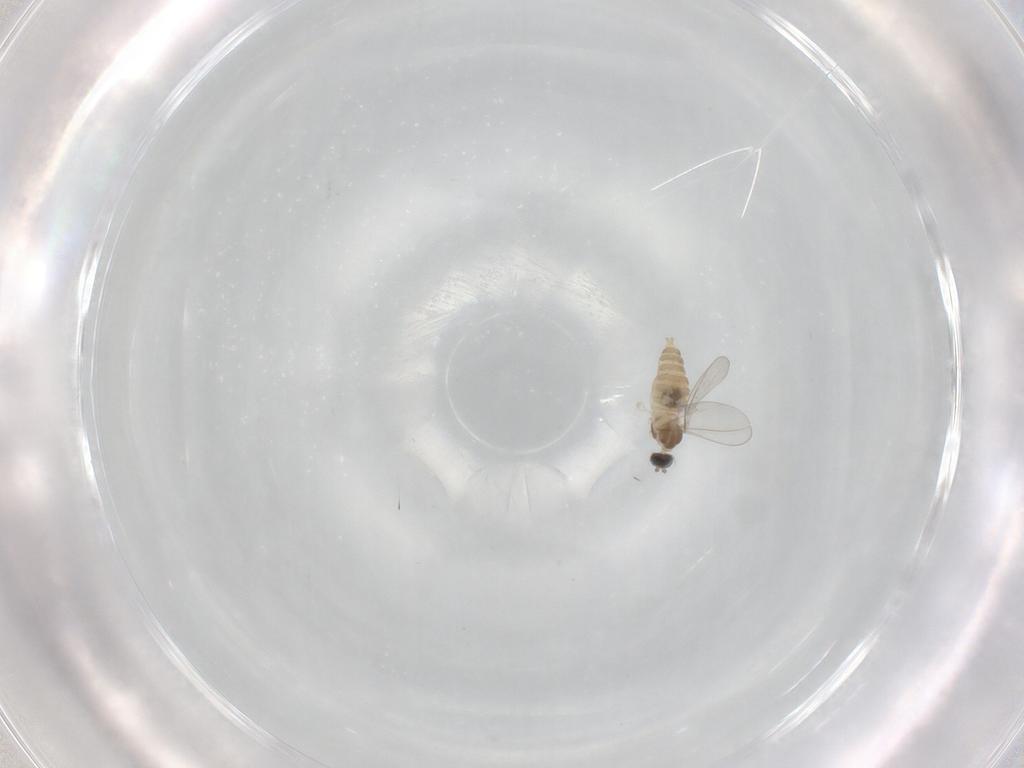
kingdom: Animalia
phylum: Arthropoda
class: Insecta
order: Diptera
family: Cecidomyiidae
